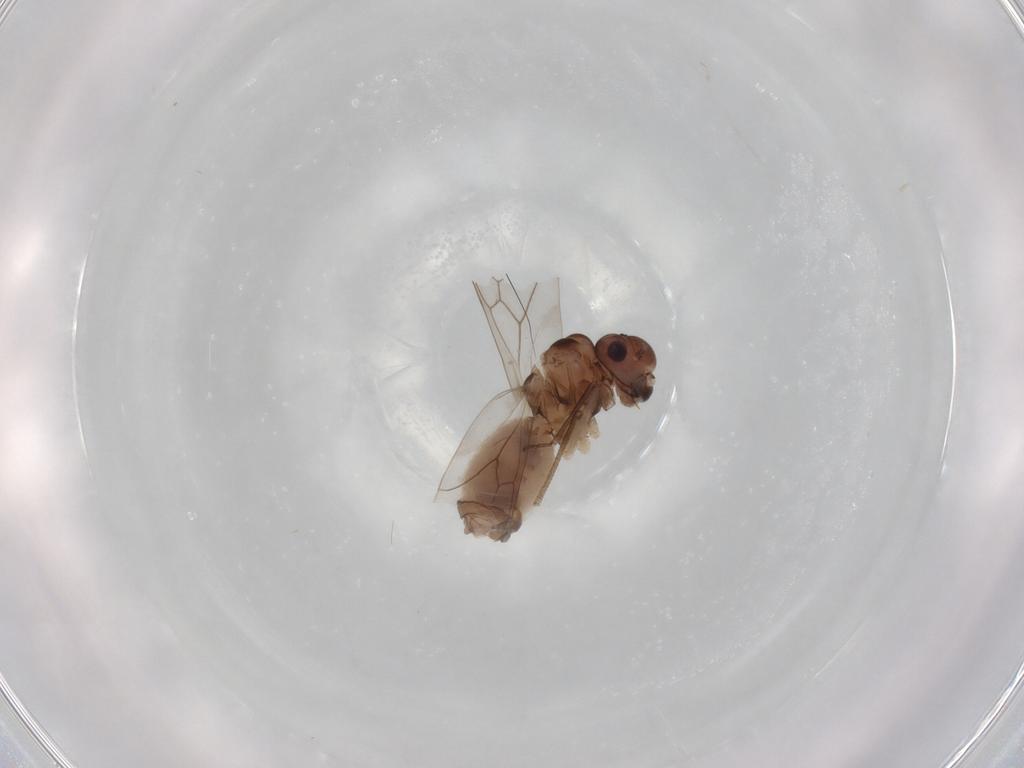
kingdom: Animalia
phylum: Arthropoda
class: Insecta
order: Psocodea
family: Peripsocidae
